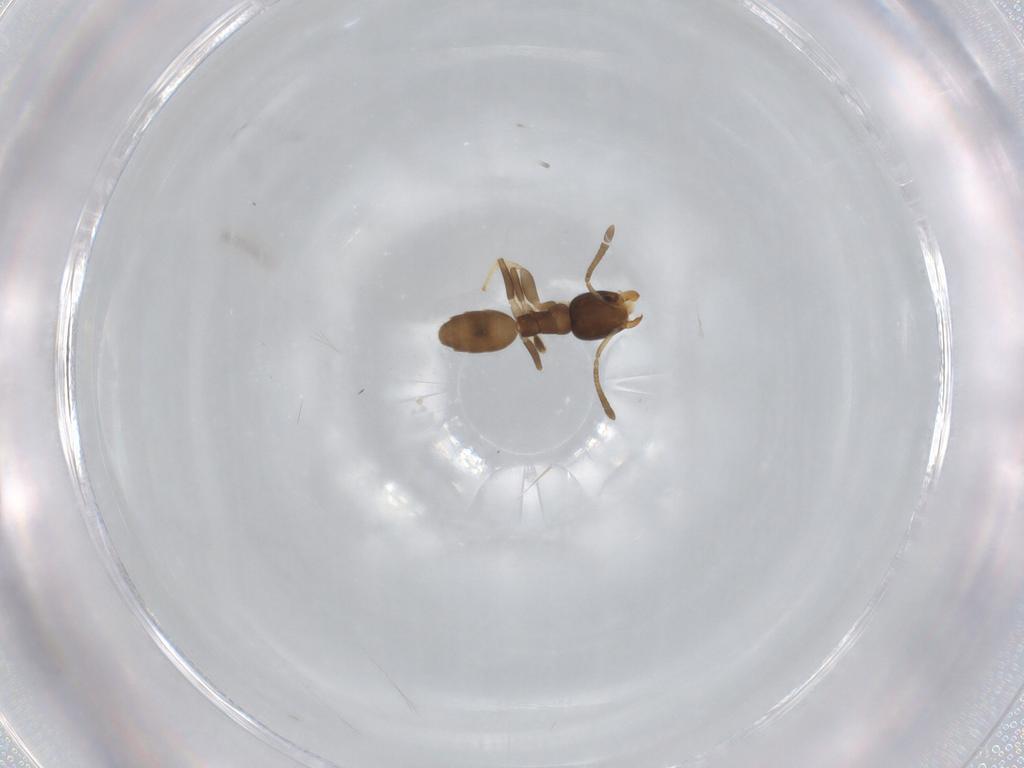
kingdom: Animalia
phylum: Arthropoda
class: Insecta
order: Hymenoptera
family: Formicidae
